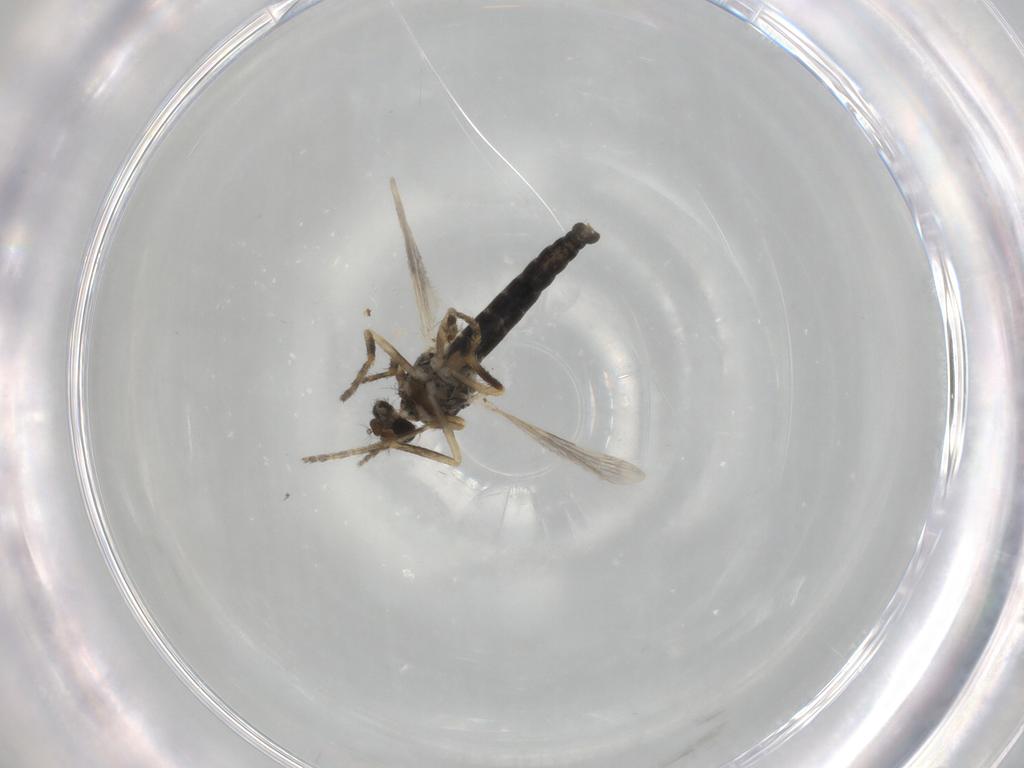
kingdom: Animalia
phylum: Arthropoda
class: Insecta
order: Diptera
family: Ceratopogonidae
